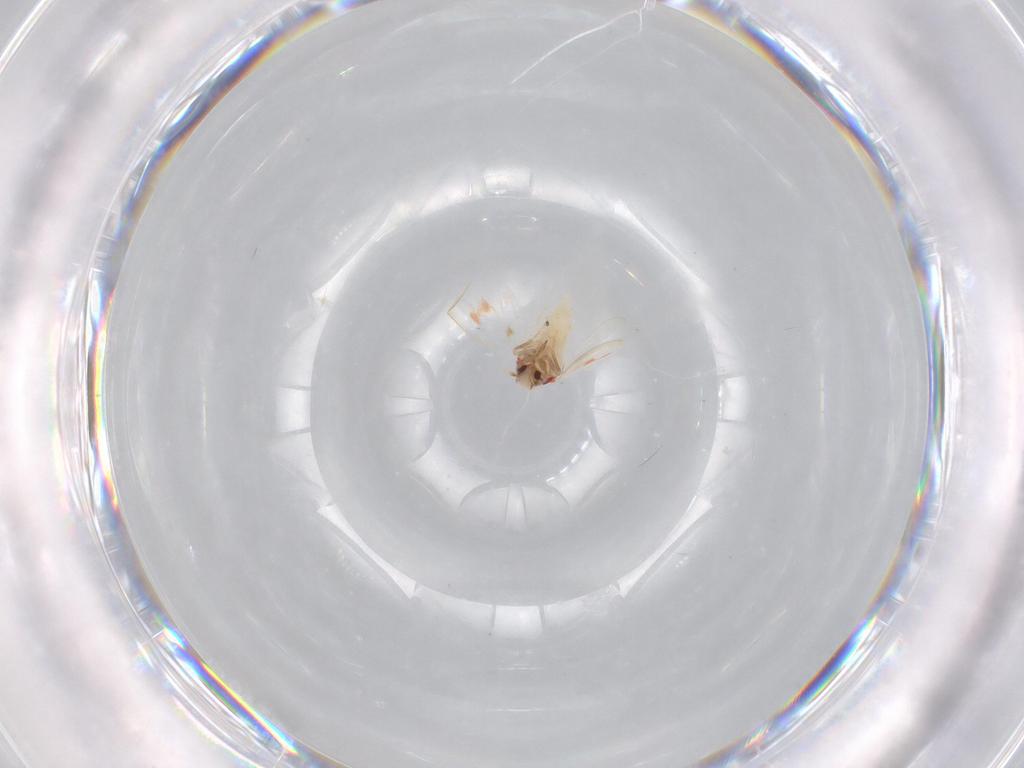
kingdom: Animalia
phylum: Arthropoda
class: Insecta
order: Hemiptera
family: Aleyrodidae
